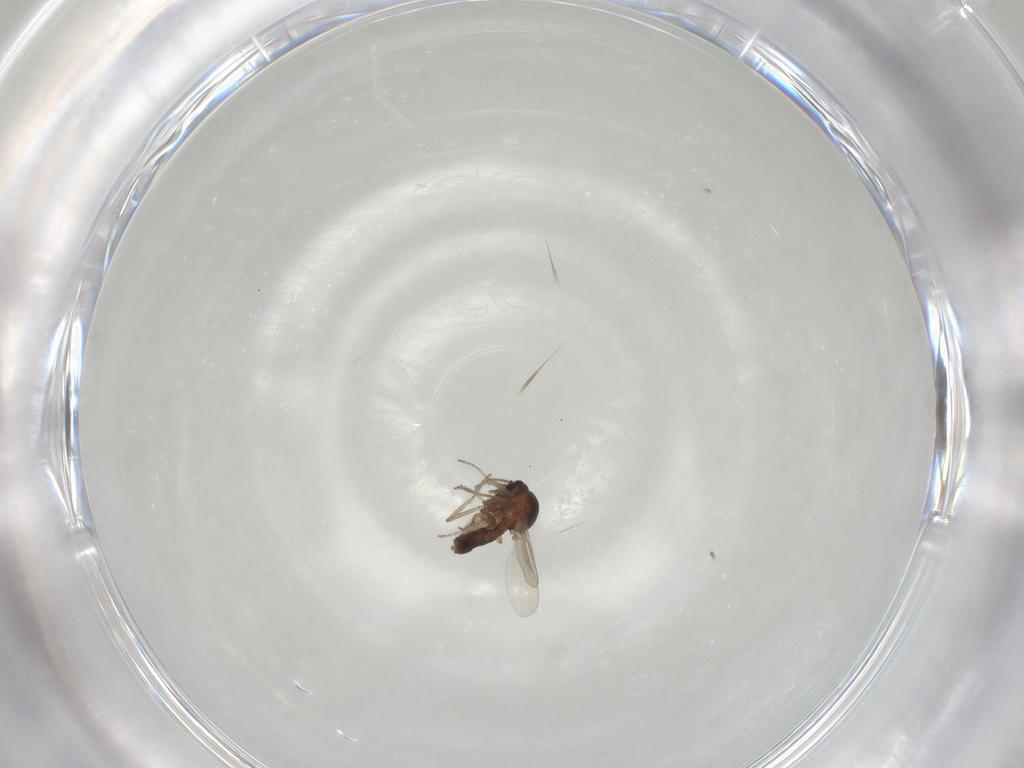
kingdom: Animalia
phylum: Arthropoda
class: Insecta
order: Diptera
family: Ceratopogonidae
